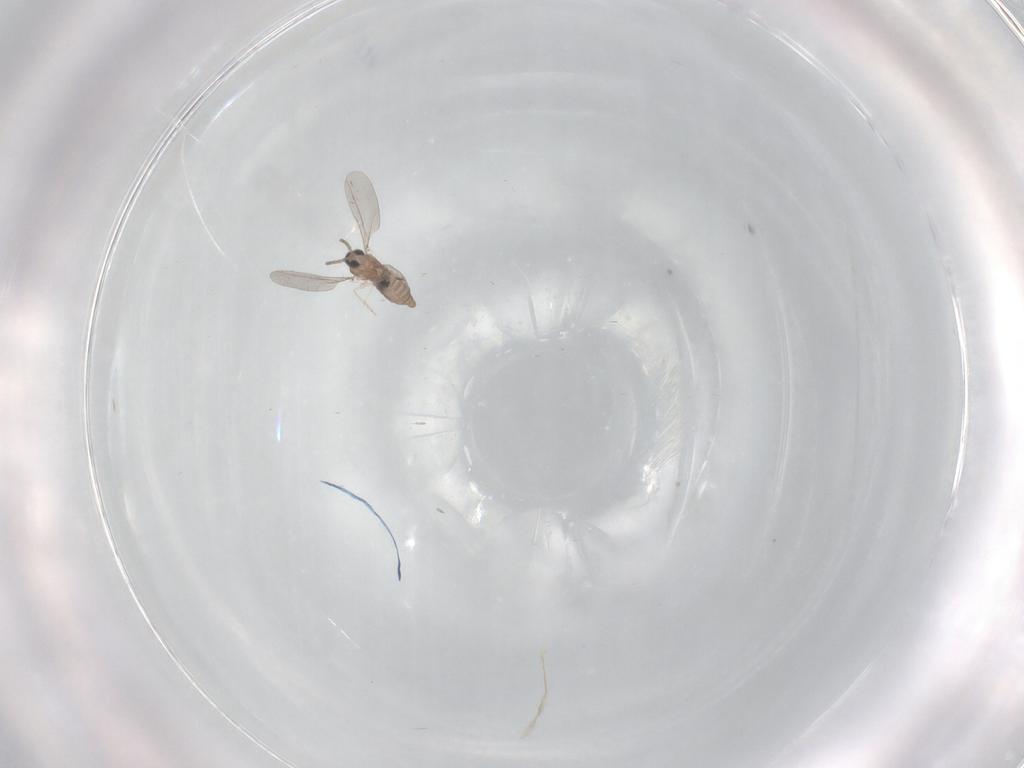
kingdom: Animalia
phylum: Arthropoda
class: Insecta
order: Diptera
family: Cecidomyiidae
